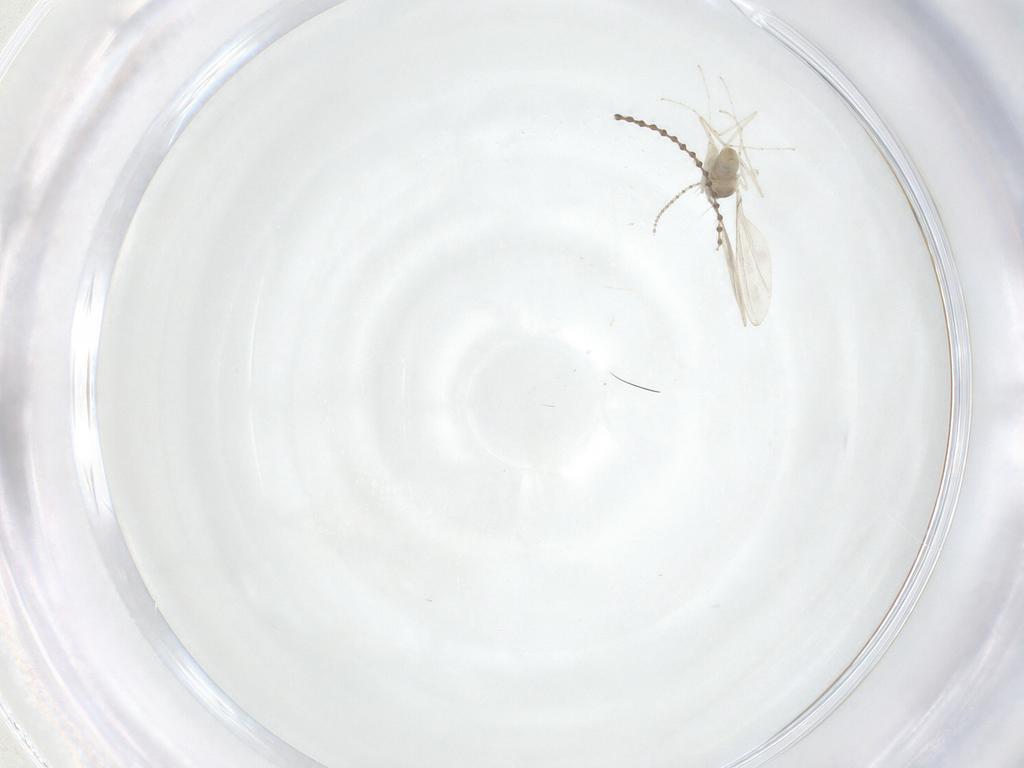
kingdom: Animalia
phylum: Arthropoda
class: Insecta
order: Diptera
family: Cecidomyiidae
